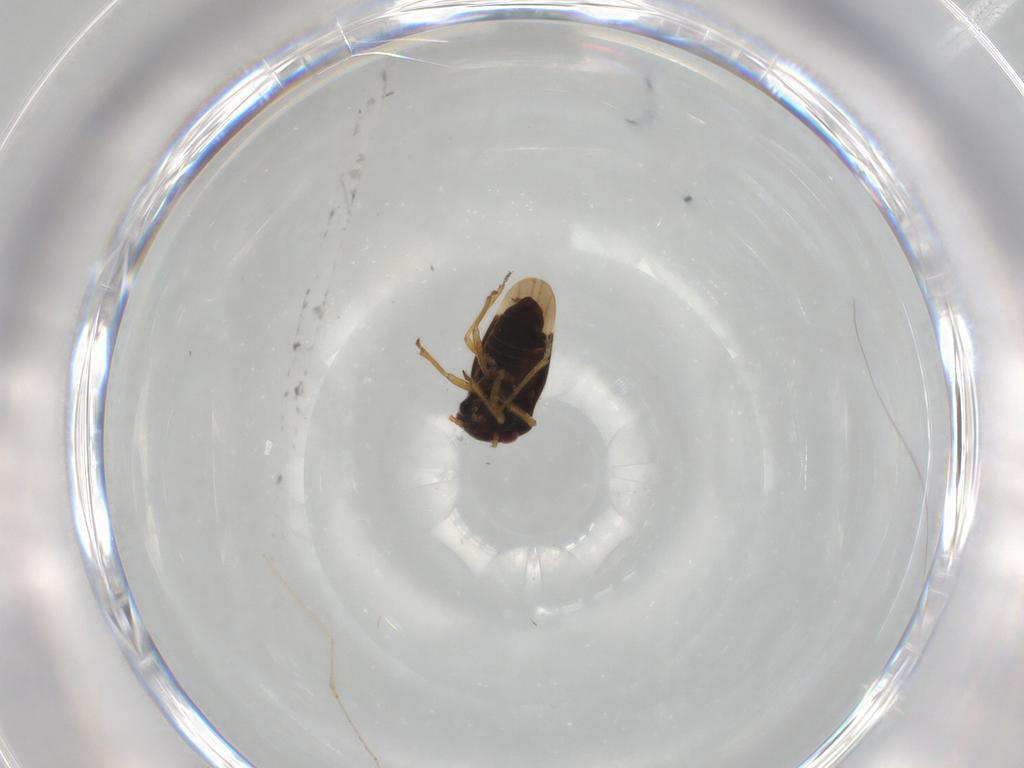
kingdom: Animalia
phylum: Arthropoda
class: Insecta
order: Hemiptera
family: Schizopteridae
